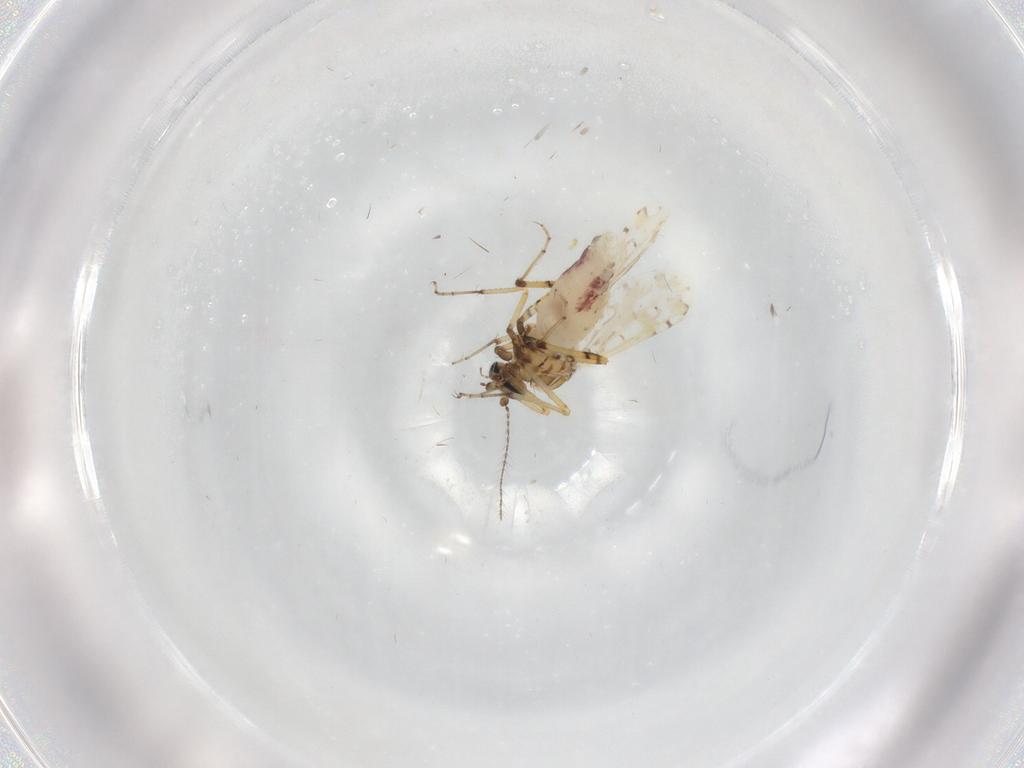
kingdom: Animalia
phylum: Arthropoda
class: Insecta
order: Diptera
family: Ceratopogonidae
